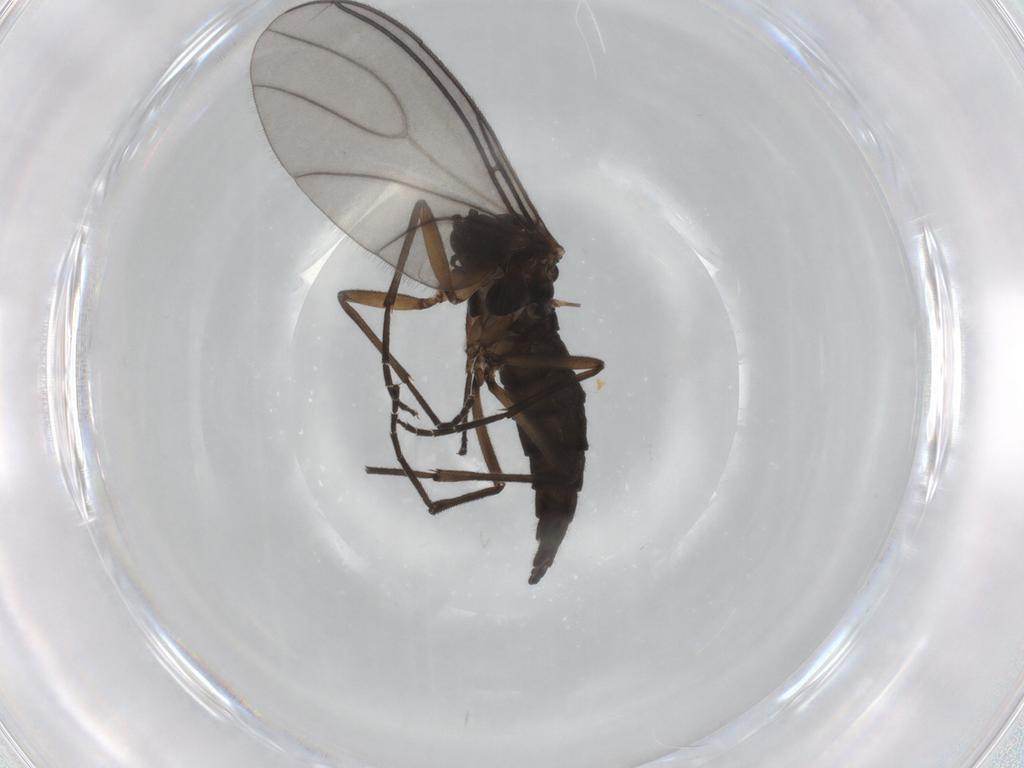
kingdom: Animalia
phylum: Arthropoda
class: Insecta
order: Diptera
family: Sciaridae
